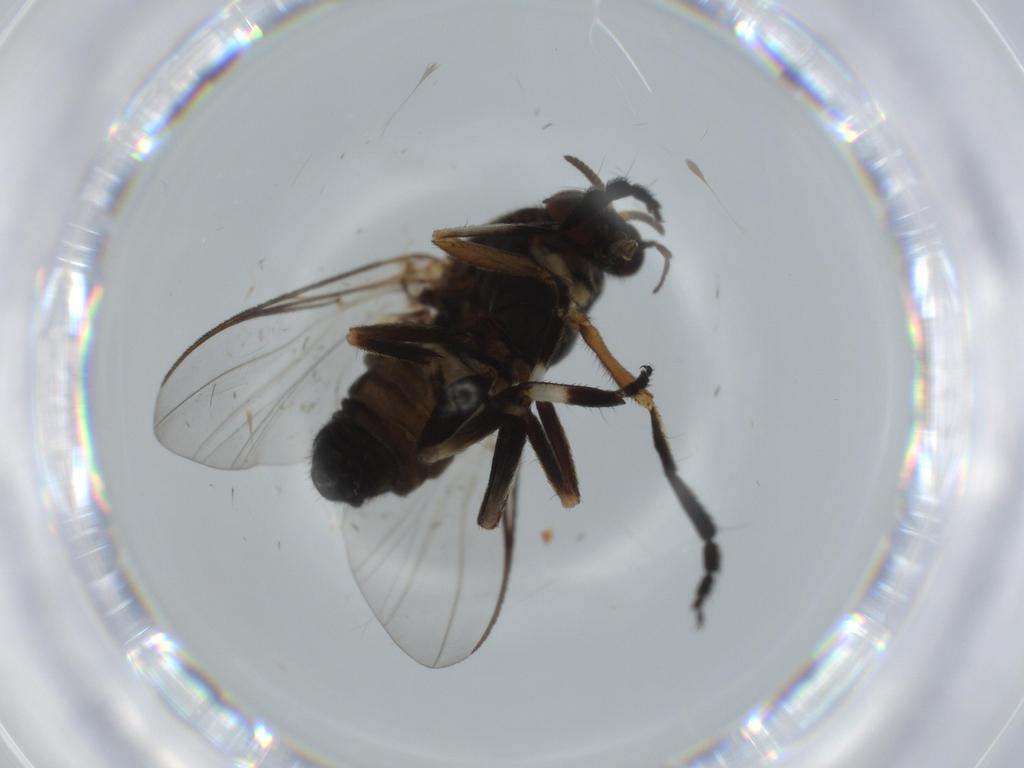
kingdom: Animalia
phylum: Arthropoda
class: Insecta
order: Diptera
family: Sciaridae
